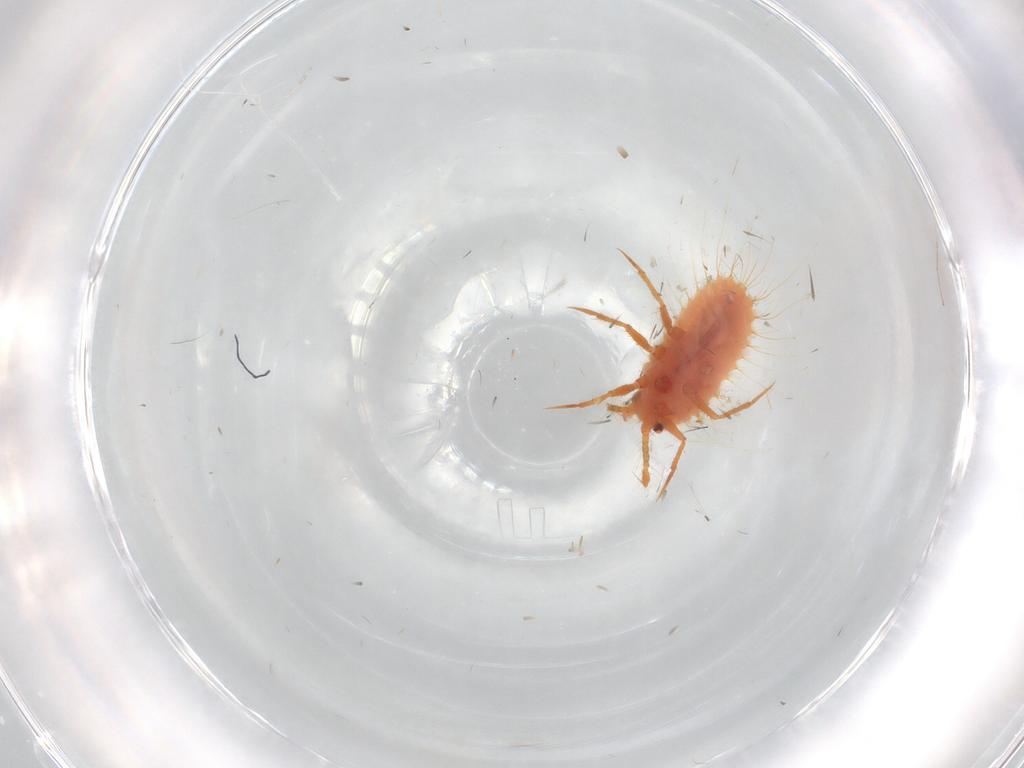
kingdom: Animalia
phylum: Arthropoda
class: Insecta
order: Hemiptera
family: Coccoidea_incertae_sedis
